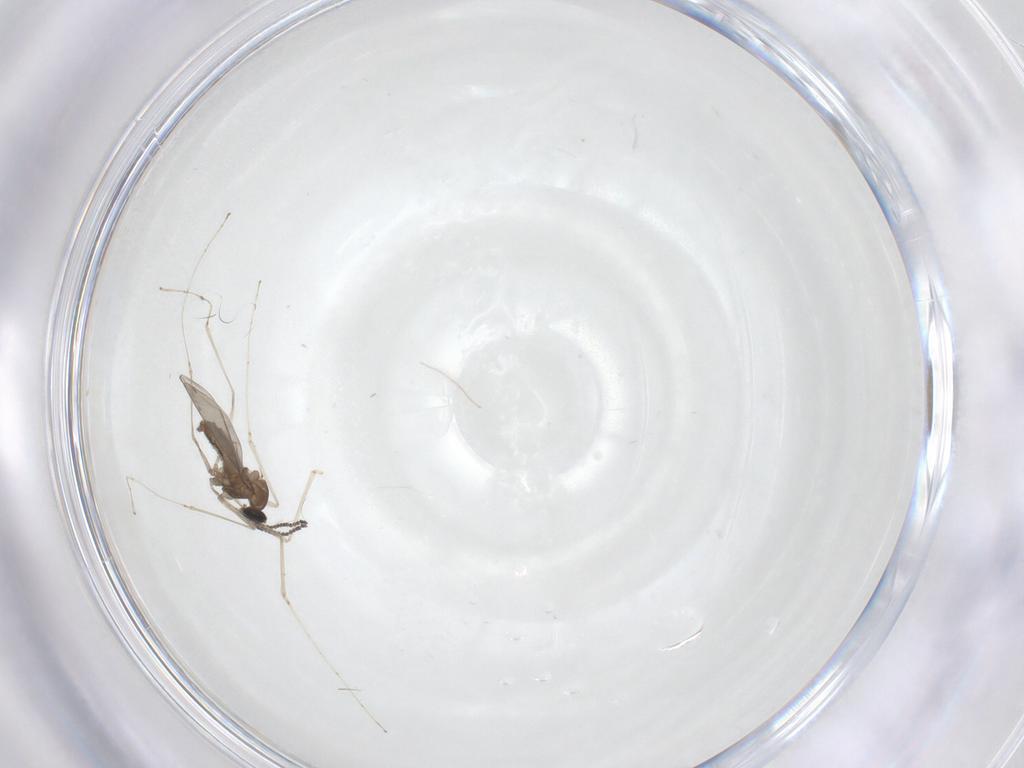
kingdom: Animalia
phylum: Arthropoda
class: Insecta
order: Diptera
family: Cecidomyiidae
